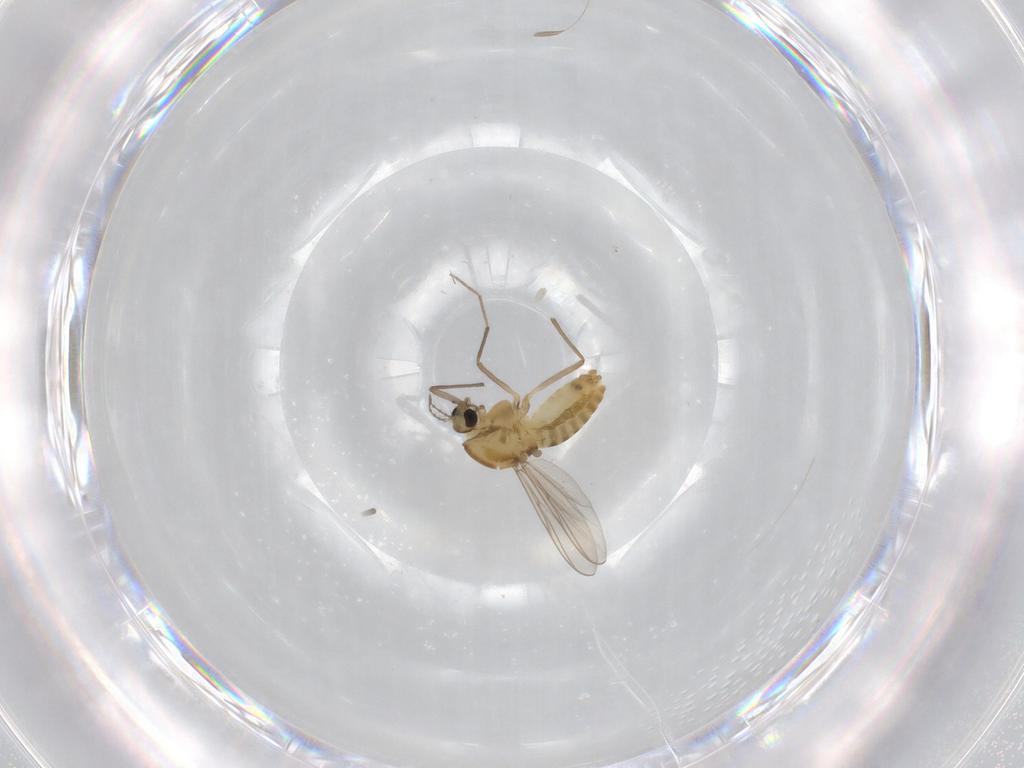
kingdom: Animalia
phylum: Arthropoda
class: Insecta
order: Diptera
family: Chironomidae
